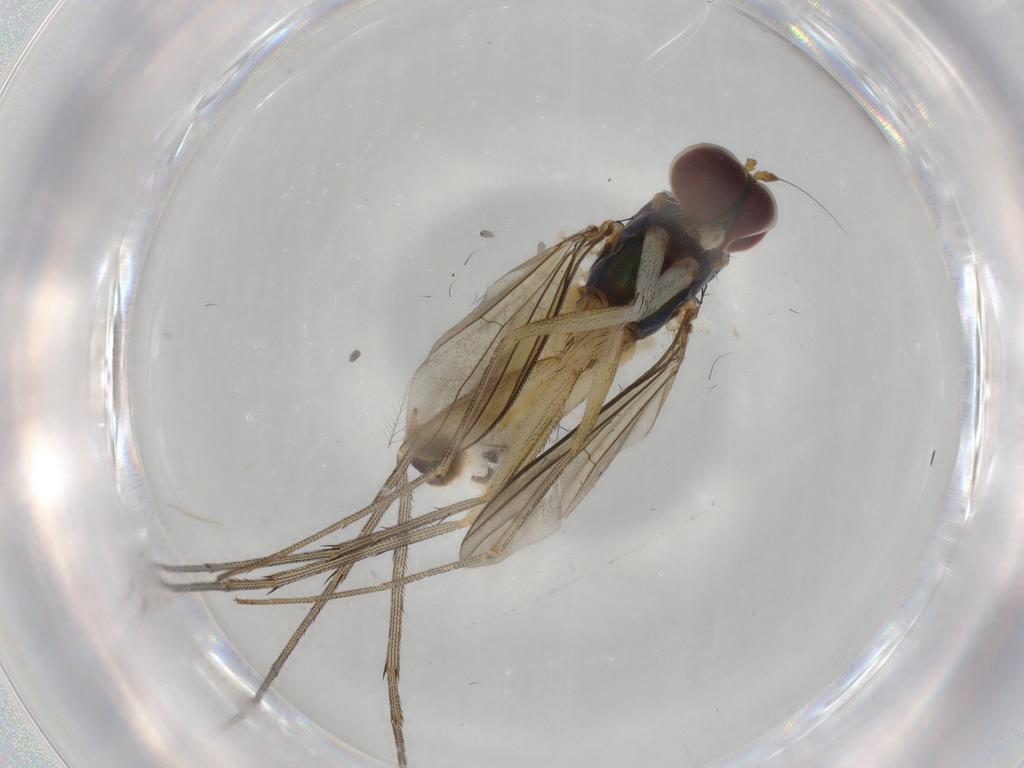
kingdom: Animalia
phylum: Arthropoda
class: Insecta
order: Diptera
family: Dolichopodidae
